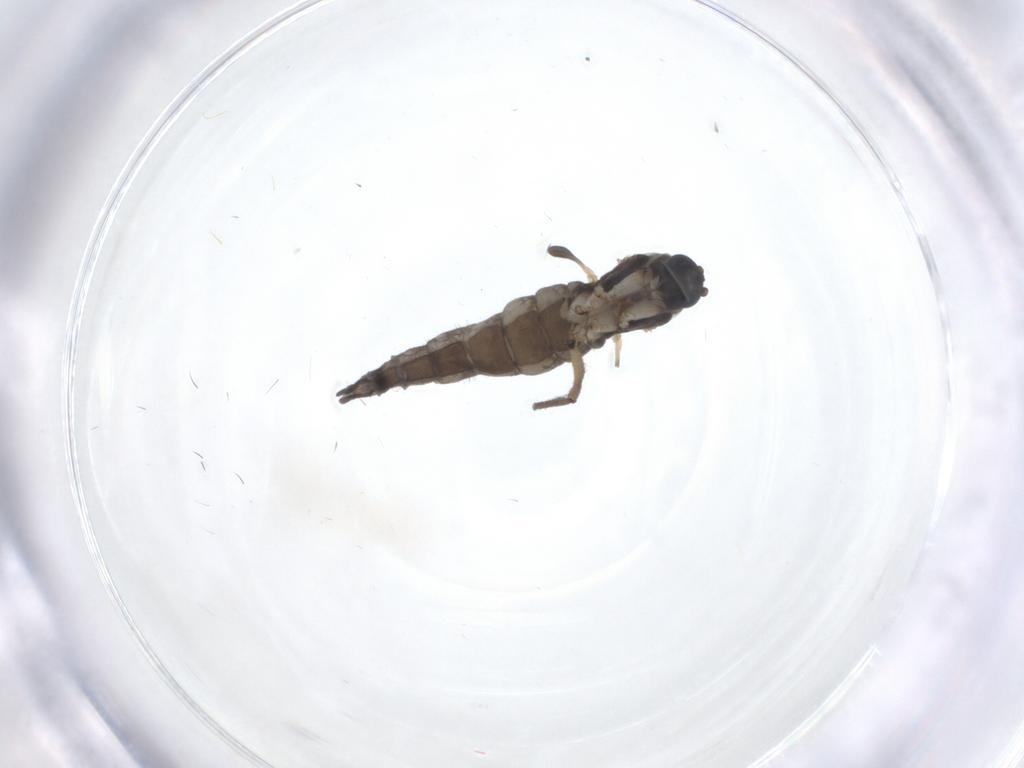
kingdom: Animalia
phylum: Arthropoda
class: Insecta
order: Diptera
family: Sciaridae
